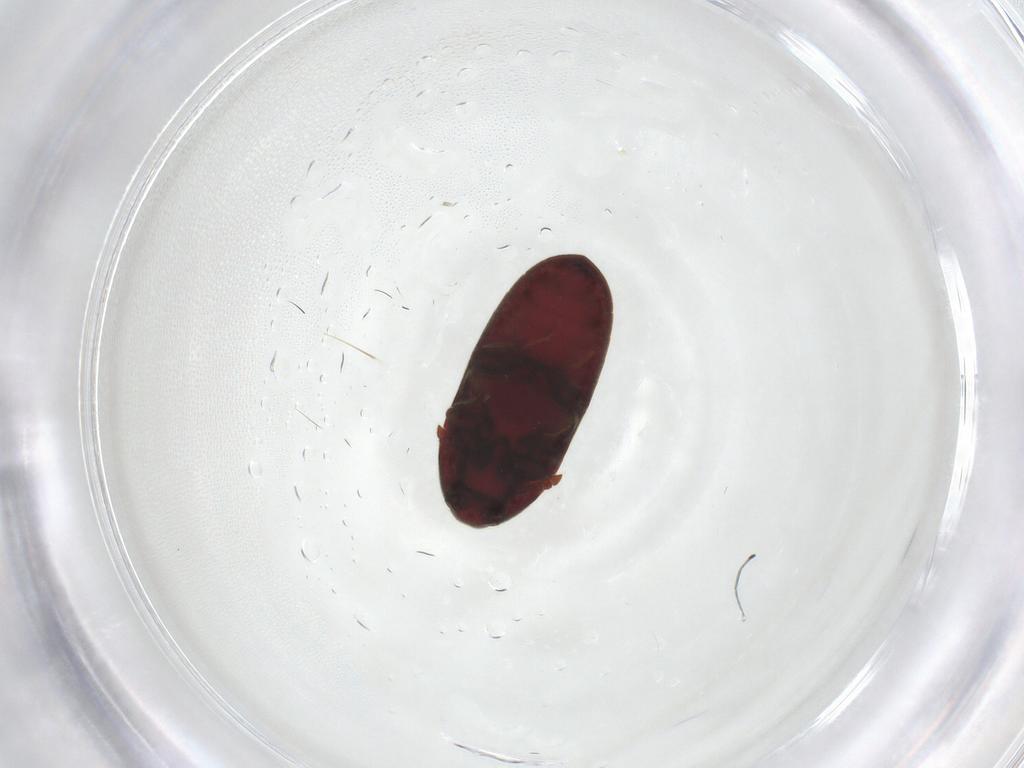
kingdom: Animalia
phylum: Arthropoda
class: Insecta
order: Coleoptera
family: Throscidae
